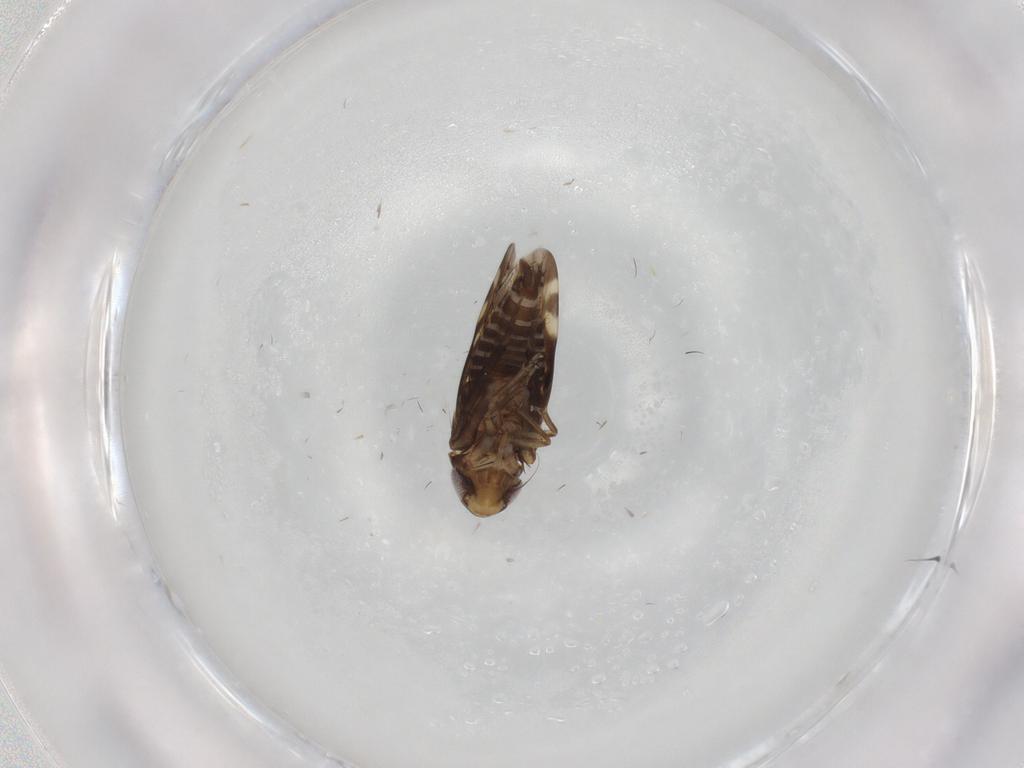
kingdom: Animalia
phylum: Arthropoda
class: Insecta
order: Hemiptera
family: Cicadellidae
